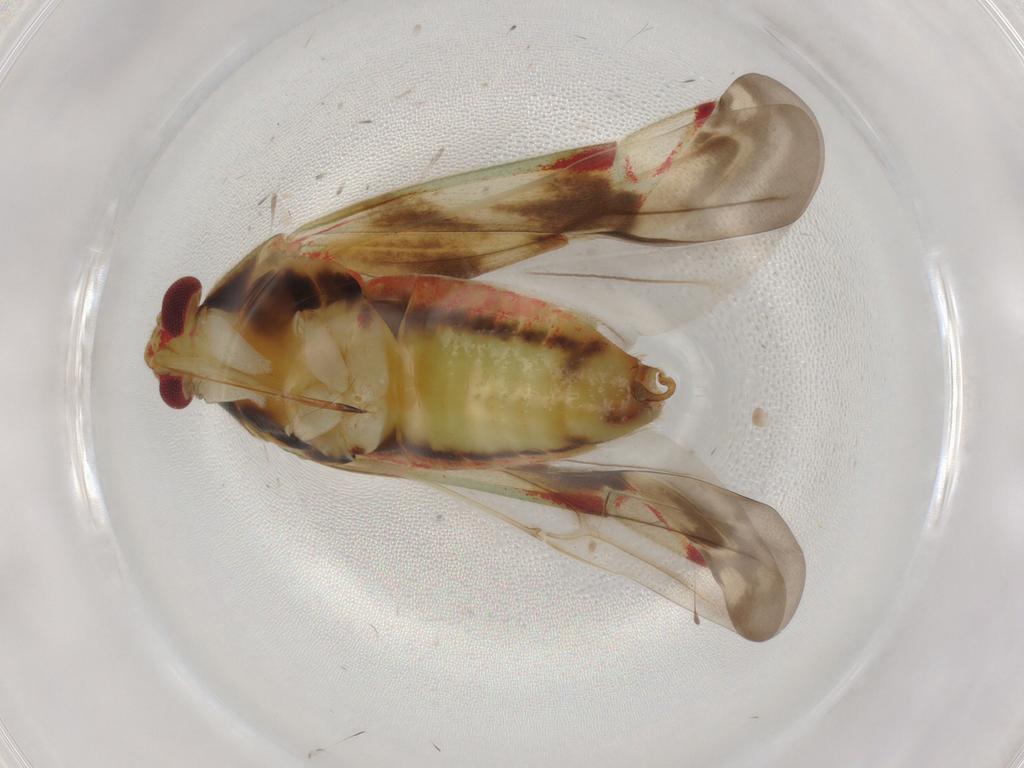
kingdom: Animalia
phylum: Arthropoda
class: Insecta
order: Hemiptera
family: Miridae
